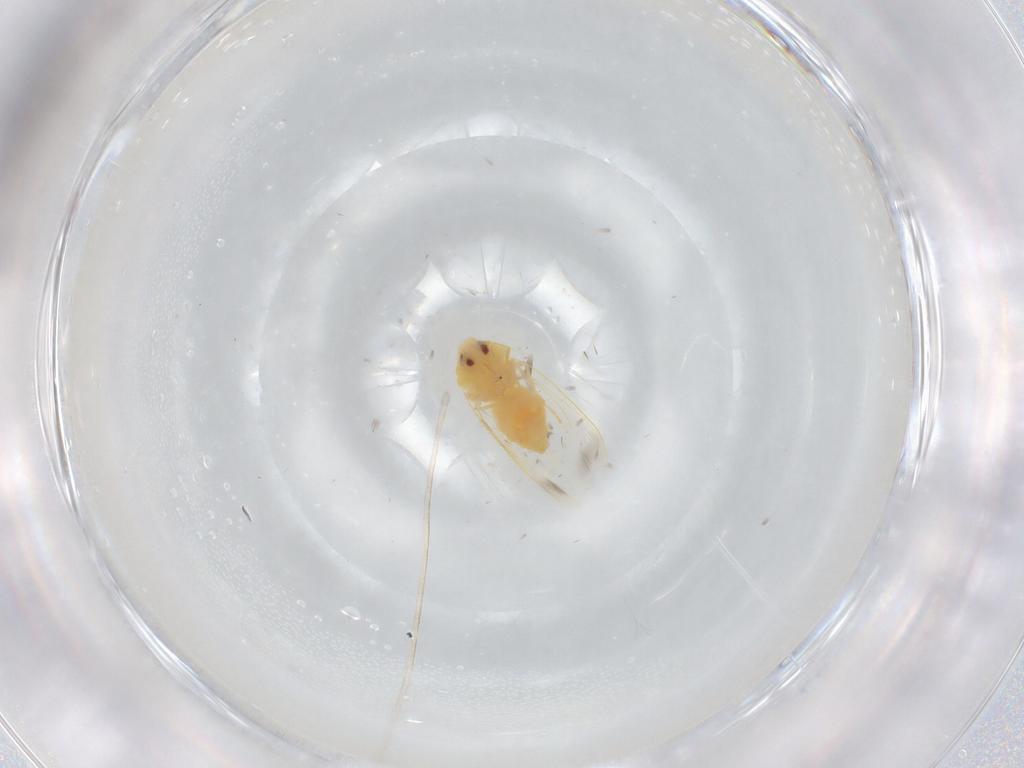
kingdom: Animalia
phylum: Arthropoda
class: Insecta
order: Hemiptera
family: Aleyrodidae
